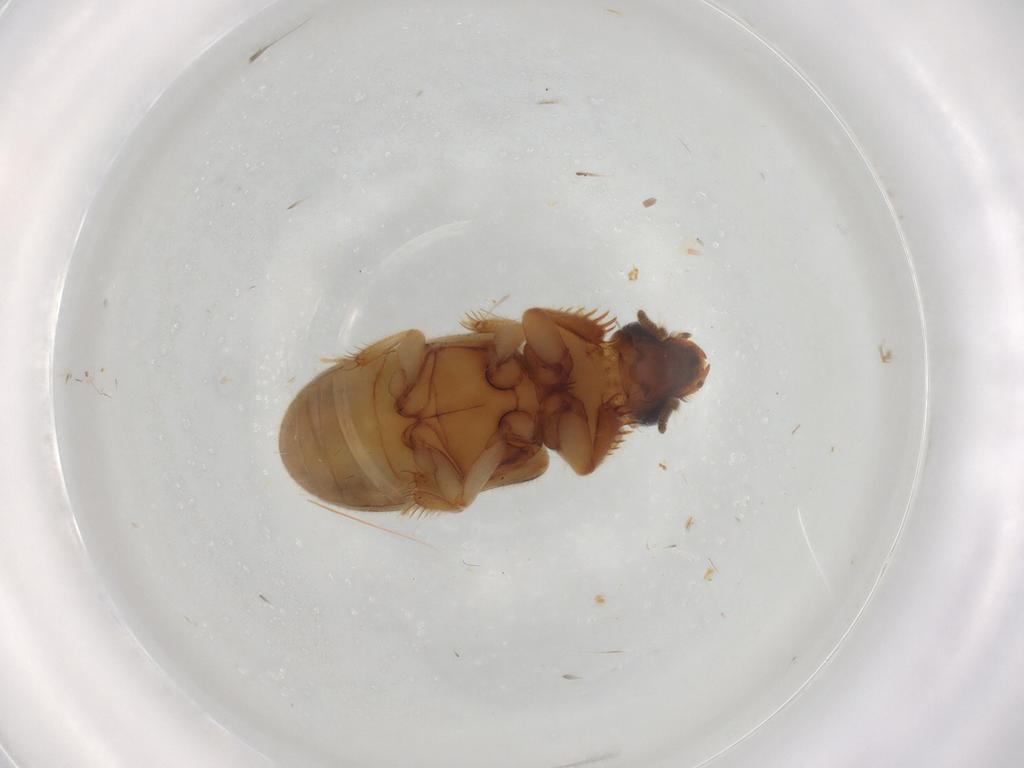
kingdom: Animalia
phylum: Arthropoda
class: Insecta
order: Coleoptera
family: Heteroceridae
